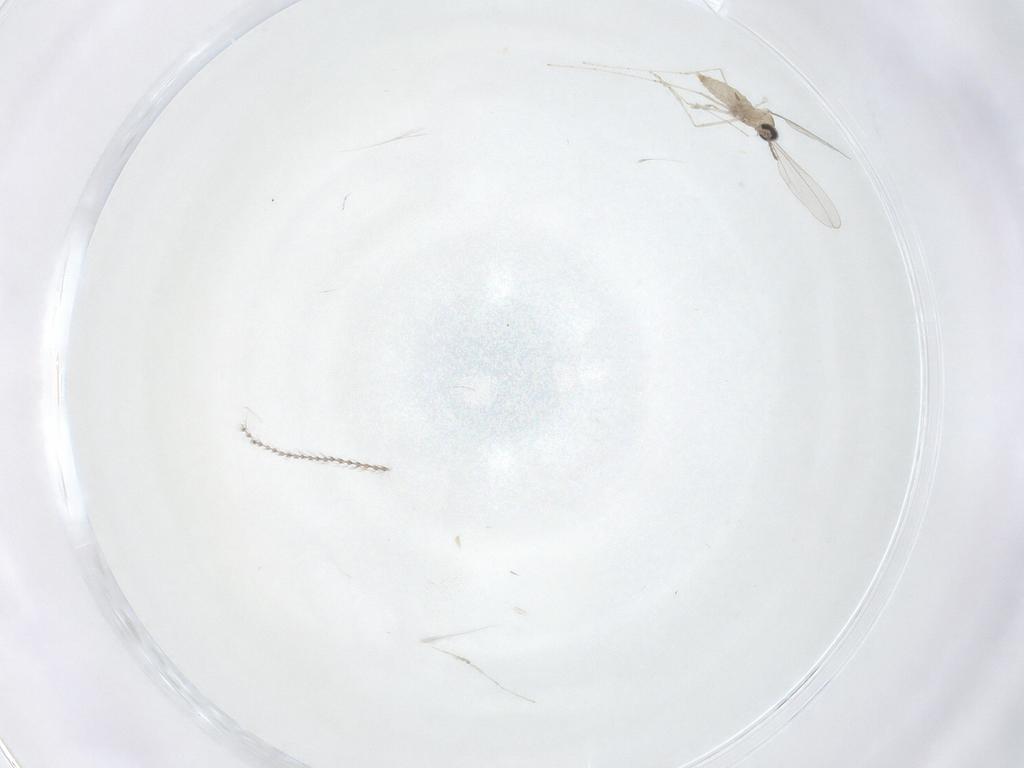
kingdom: Animalia
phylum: Arthropoda
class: Insecta
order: Diptera
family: Cecidomyiidae
